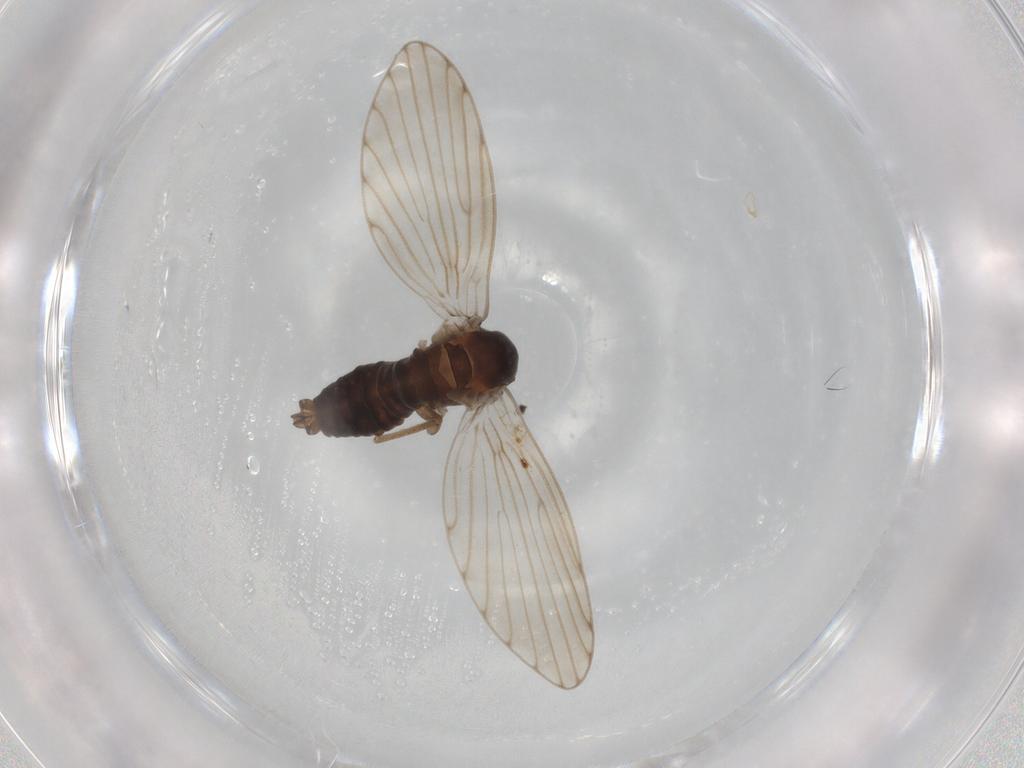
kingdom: Animalia
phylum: Arthropoda
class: Insecta
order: Diptera
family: Psychodidae
